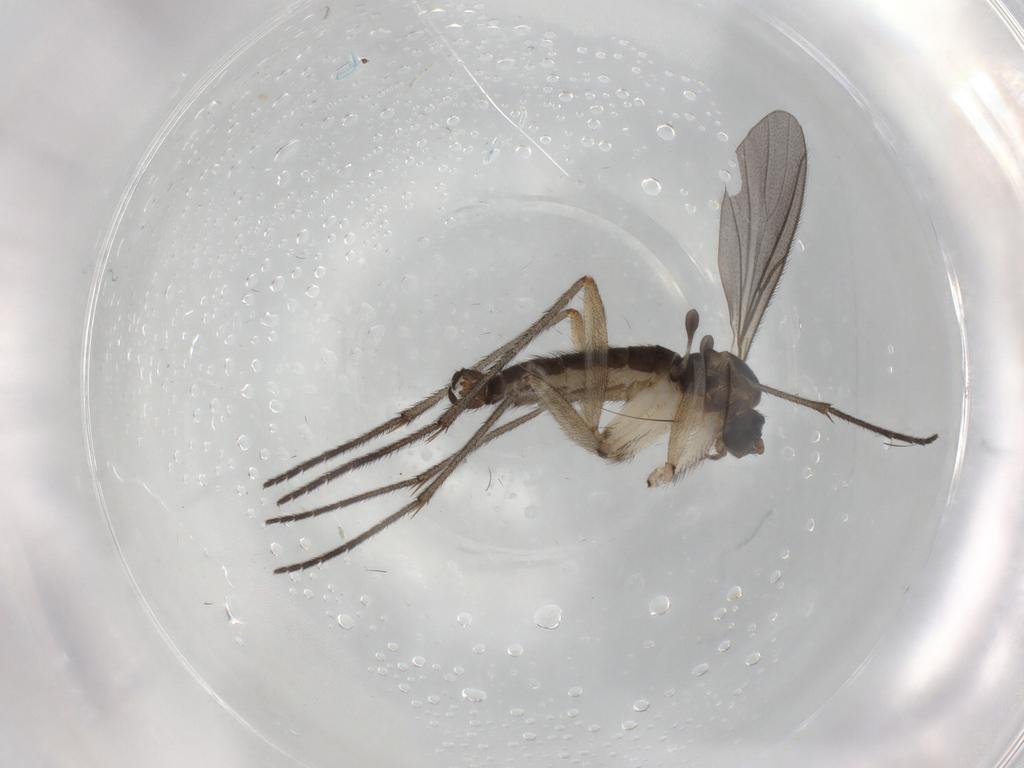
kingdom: Animalia
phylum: Arthropoda
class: Insecta
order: Diptera
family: Sciaridae
